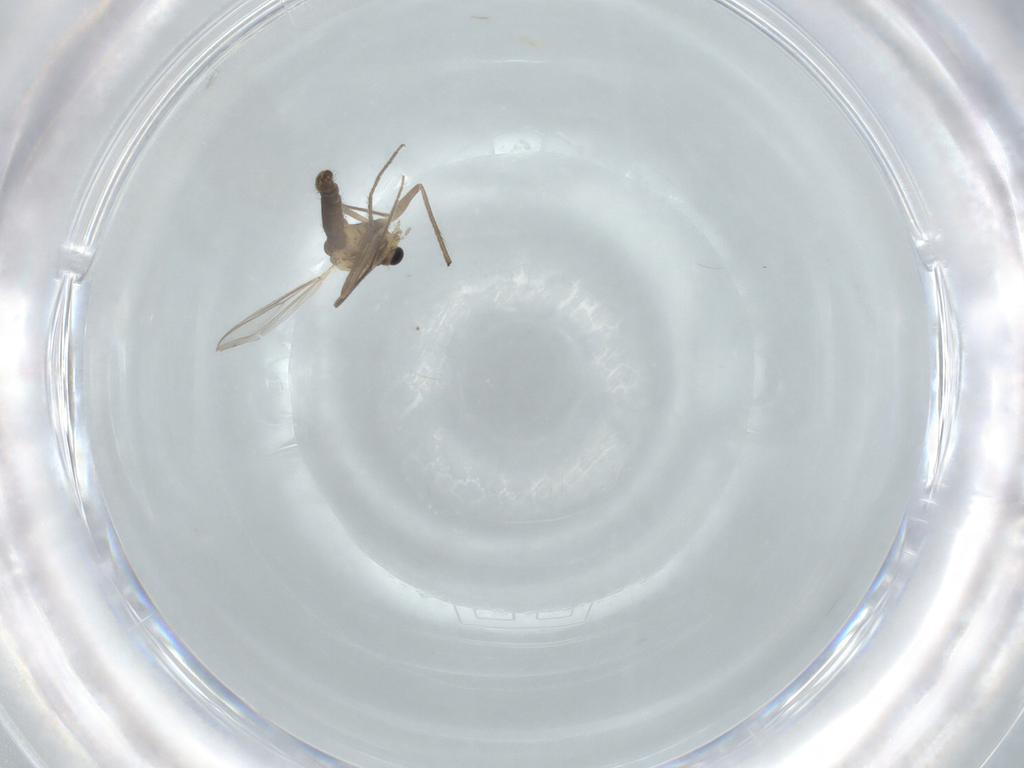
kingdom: Animalia
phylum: Arthropoda
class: Insecta
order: Diptera
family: Chironomidae
